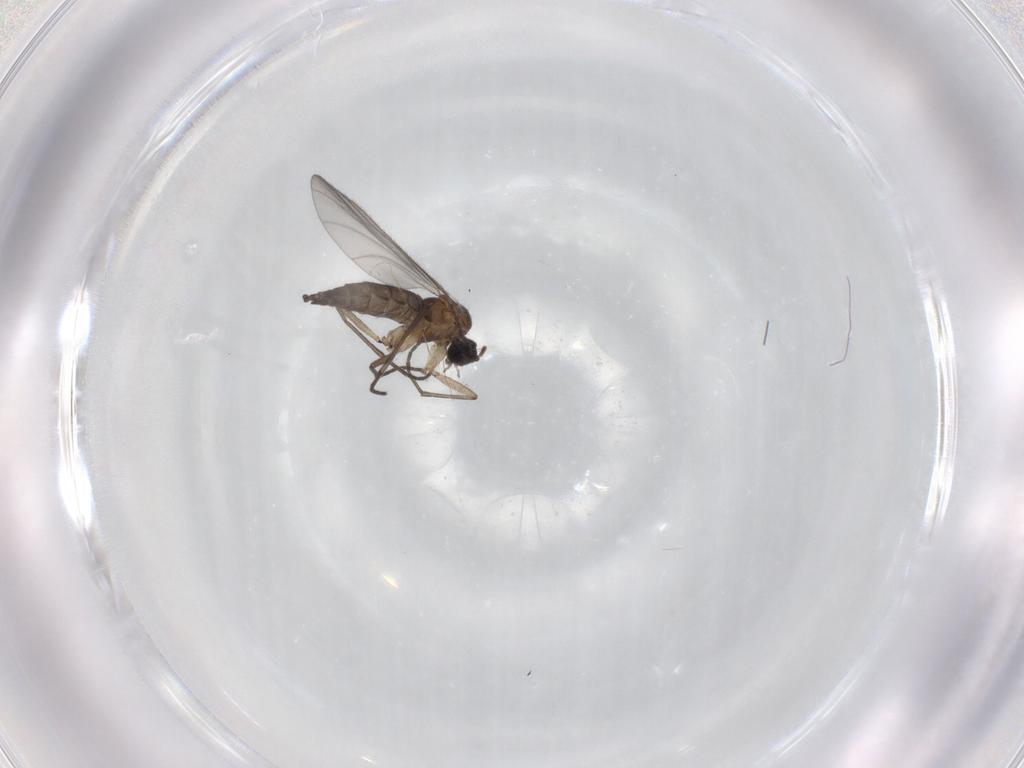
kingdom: Animalia
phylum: Arthropoda
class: Insecta
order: Diptera
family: Sciaridae
